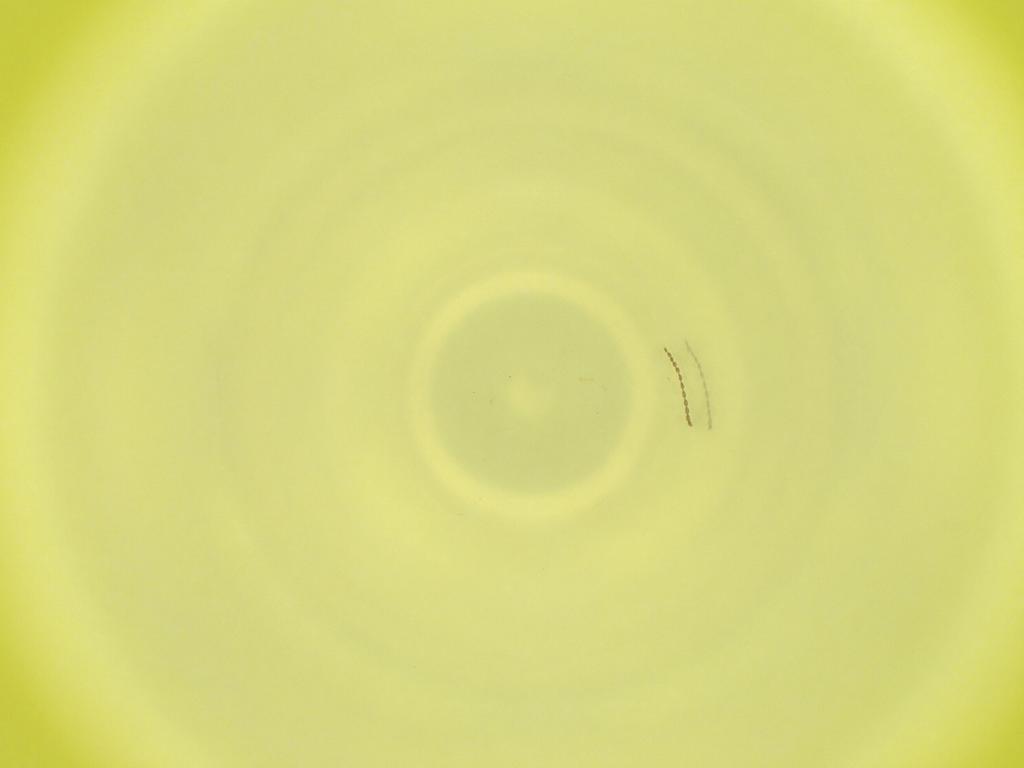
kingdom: Animalia
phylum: Arthropoda
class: Insecta
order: Diptera
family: Cecidomyiidae
